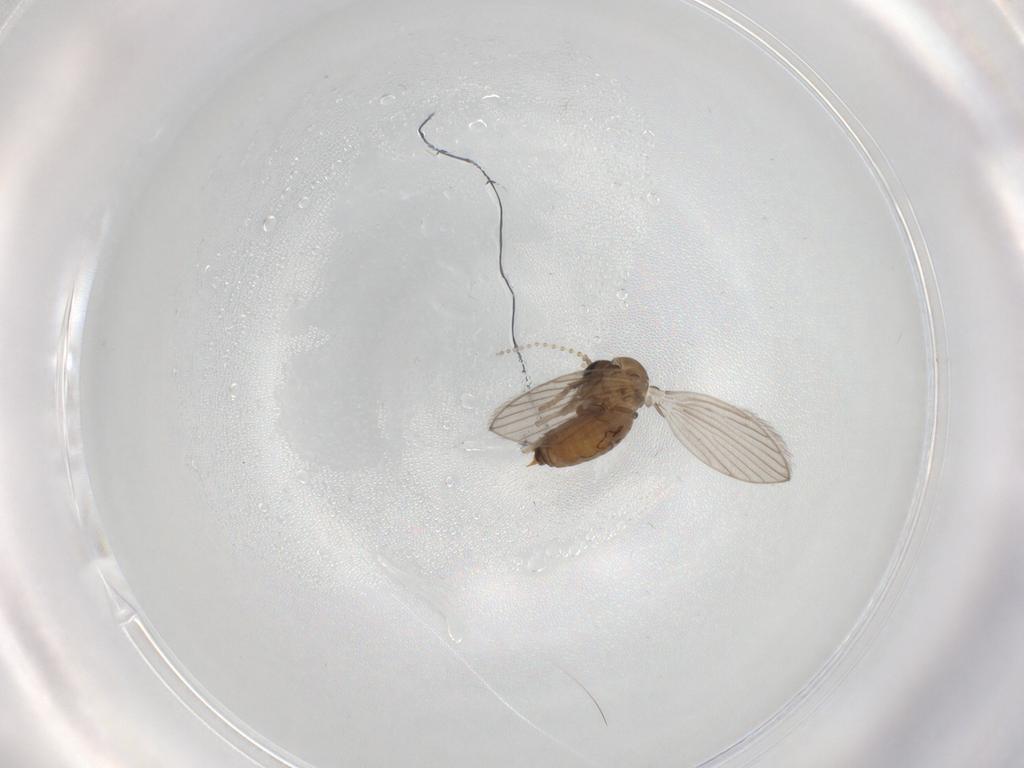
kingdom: Animalia
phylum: Arthropoda
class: Insecta
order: Diptera
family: Psychodidae
